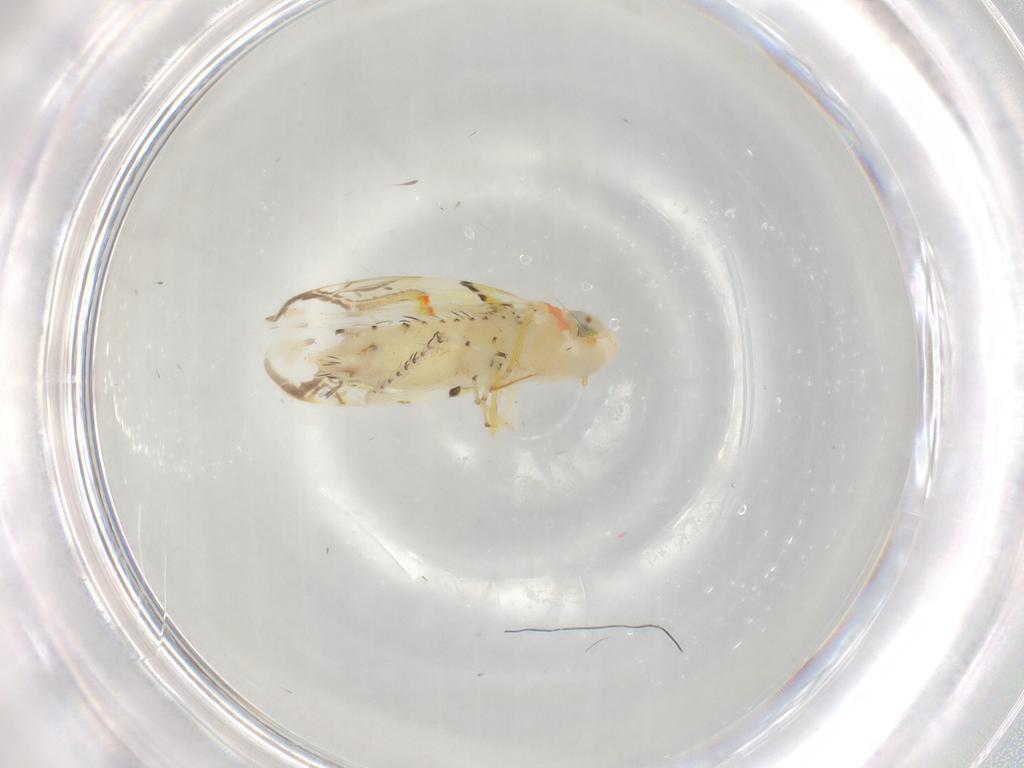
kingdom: Animalia
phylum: Arthropoda
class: Insecta
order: Hemiptera
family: Cicadellidae
